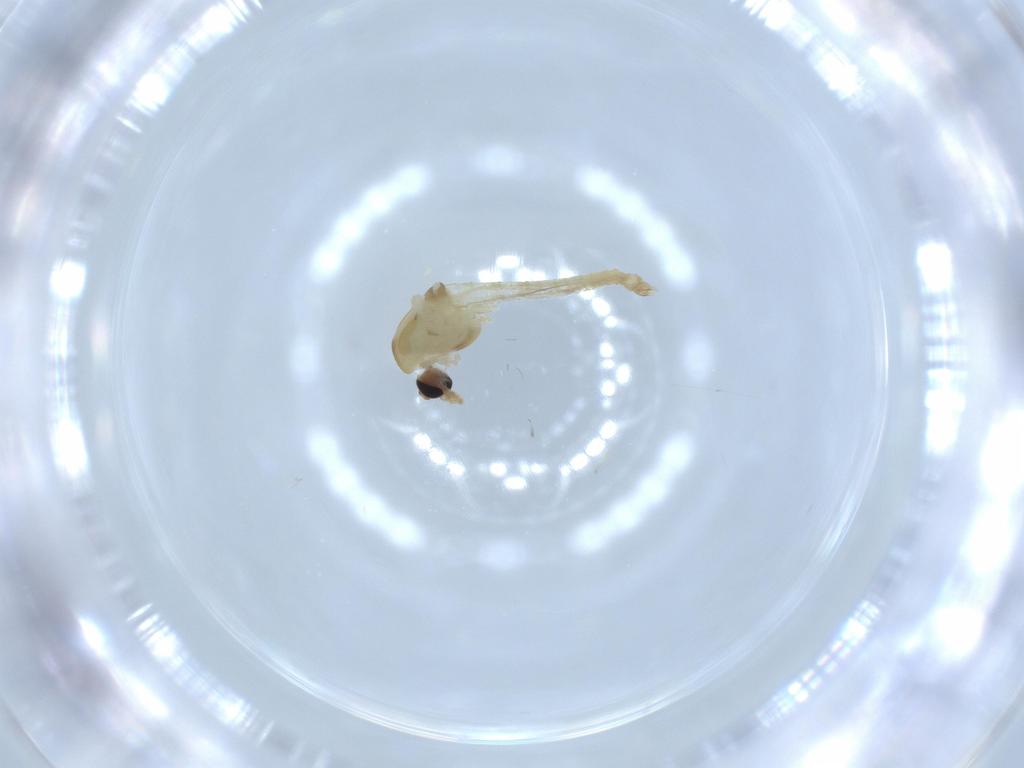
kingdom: Animalia
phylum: Arthropoda
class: Insecta
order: Diptera
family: Chironomidae
